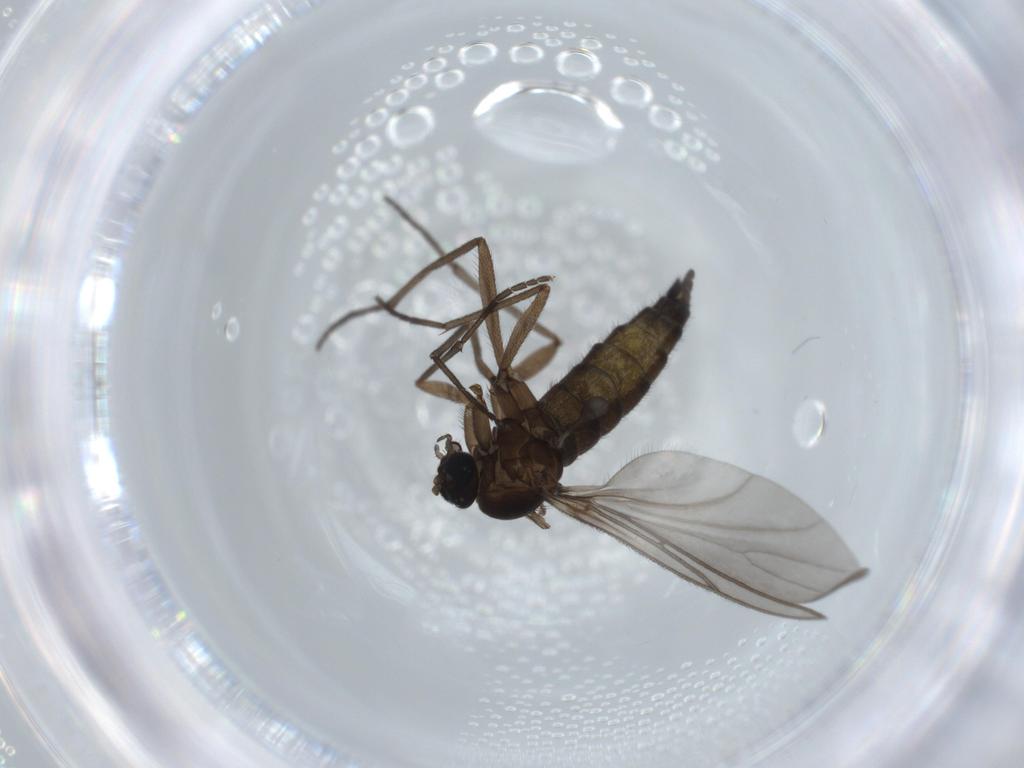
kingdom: Animalia
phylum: Arthropoda
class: Insecta
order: Diptera
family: Sciaridae
